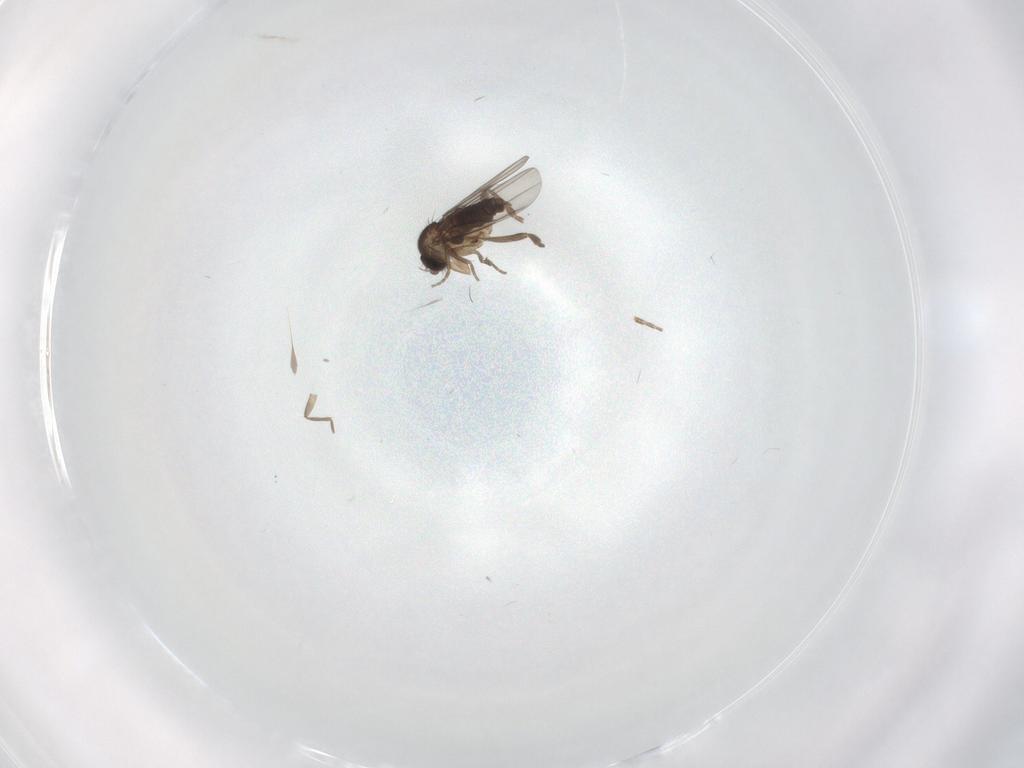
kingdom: Animalia
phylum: Arthropoda
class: Insecta
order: Diptera
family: Phoridae
